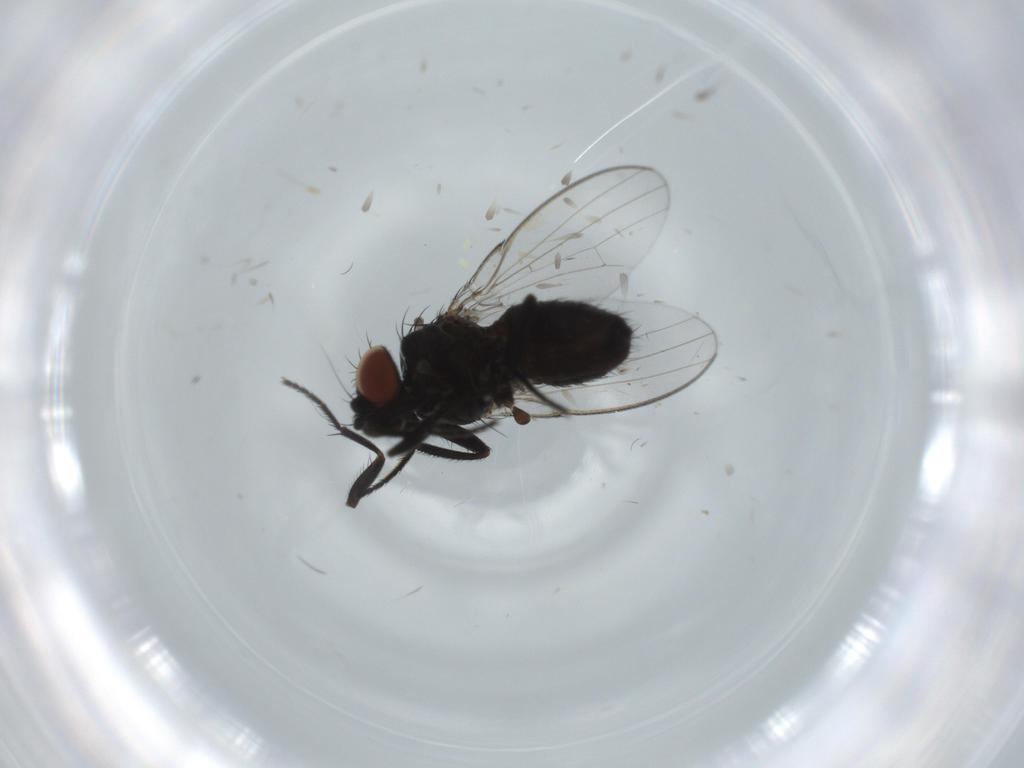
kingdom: Animalia
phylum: Arthropoda
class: Insecta
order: Diptera
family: Milichiidae
